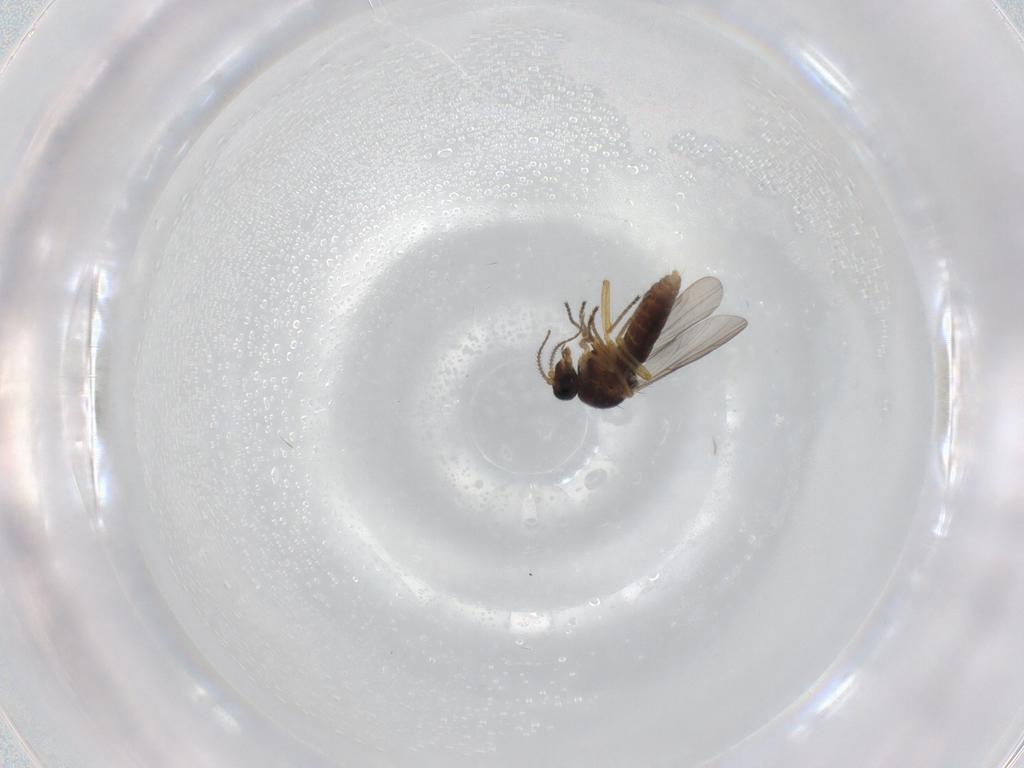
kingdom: Animalia
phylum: Arthropoda
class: Insecta
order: Diptera
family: Ceratopogonidae
